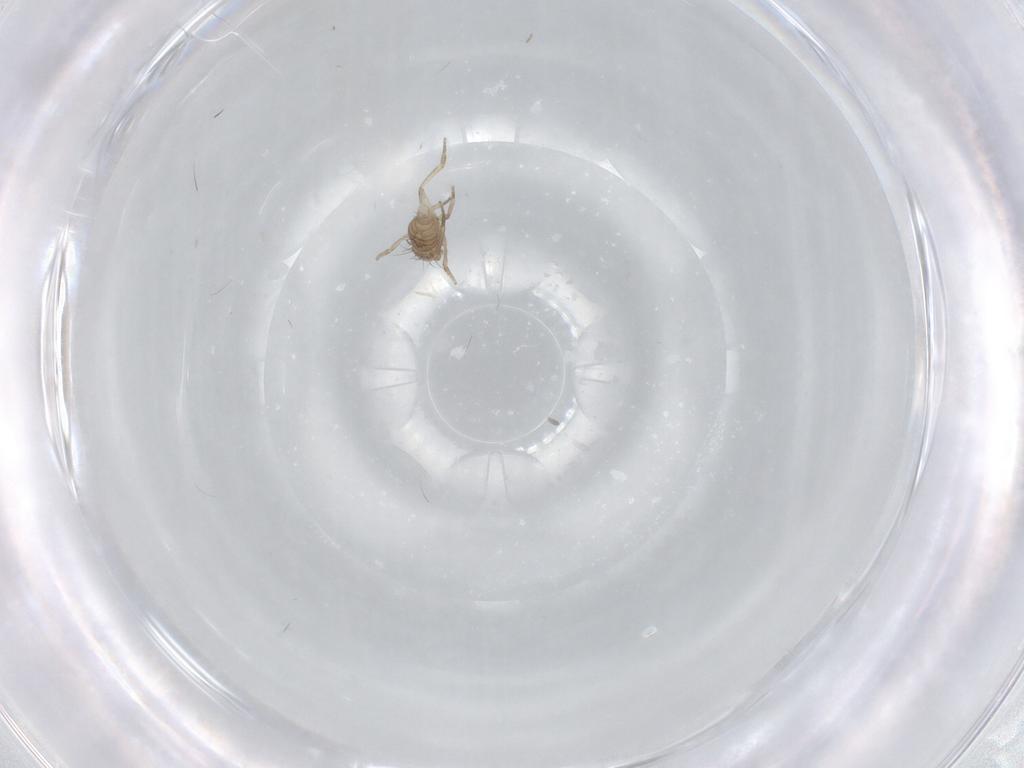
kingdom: Animalia
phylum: Arthropoda
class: Insecta
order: Diptera
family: Phoridae
